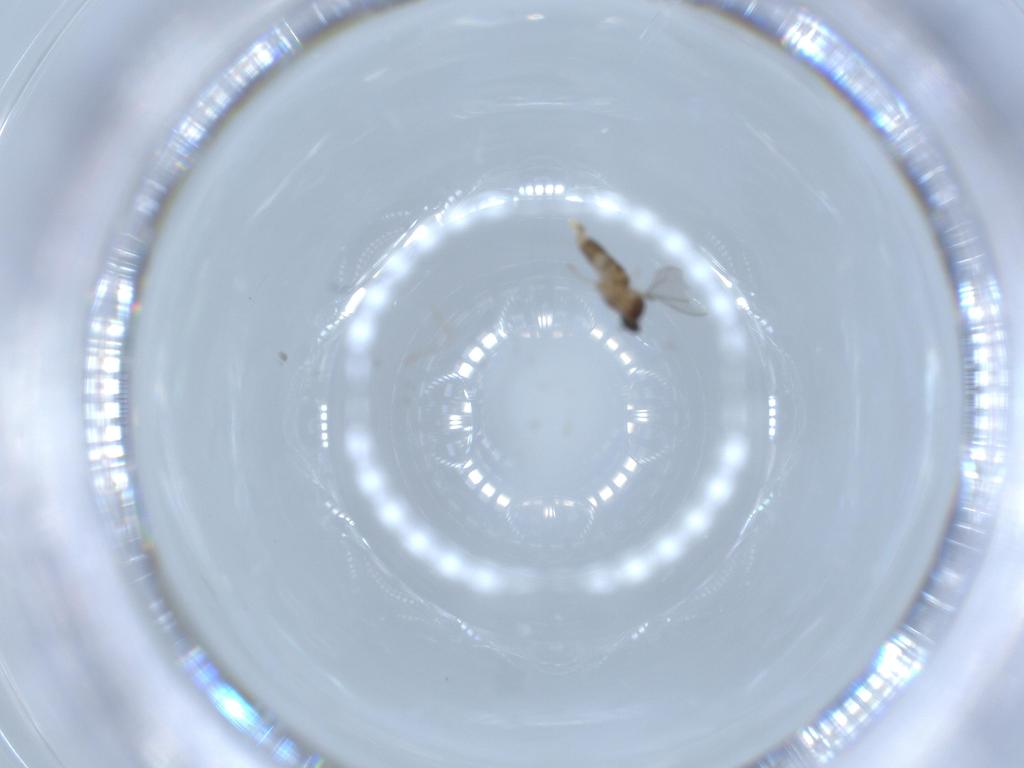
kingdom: Animalia
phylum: Arthropoda
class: Insecta
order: Diptera
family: Cecidomyiidae
